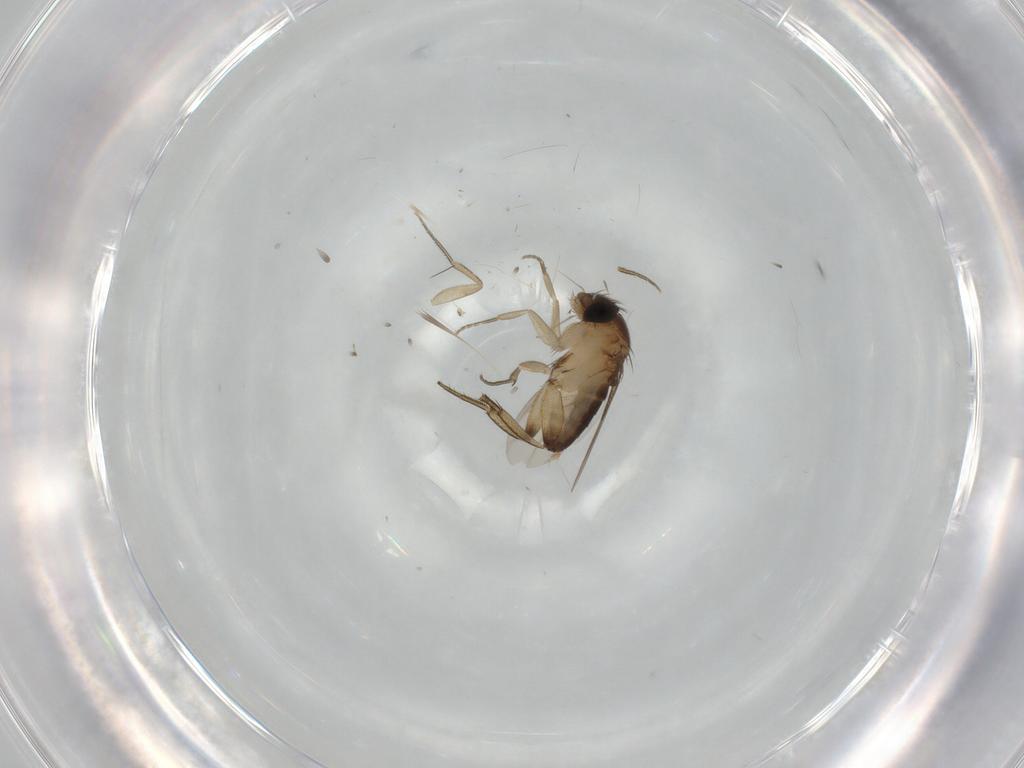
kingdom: Animalia
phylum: Arthropoda
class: Insecta
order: Diptera
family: Phoridae
